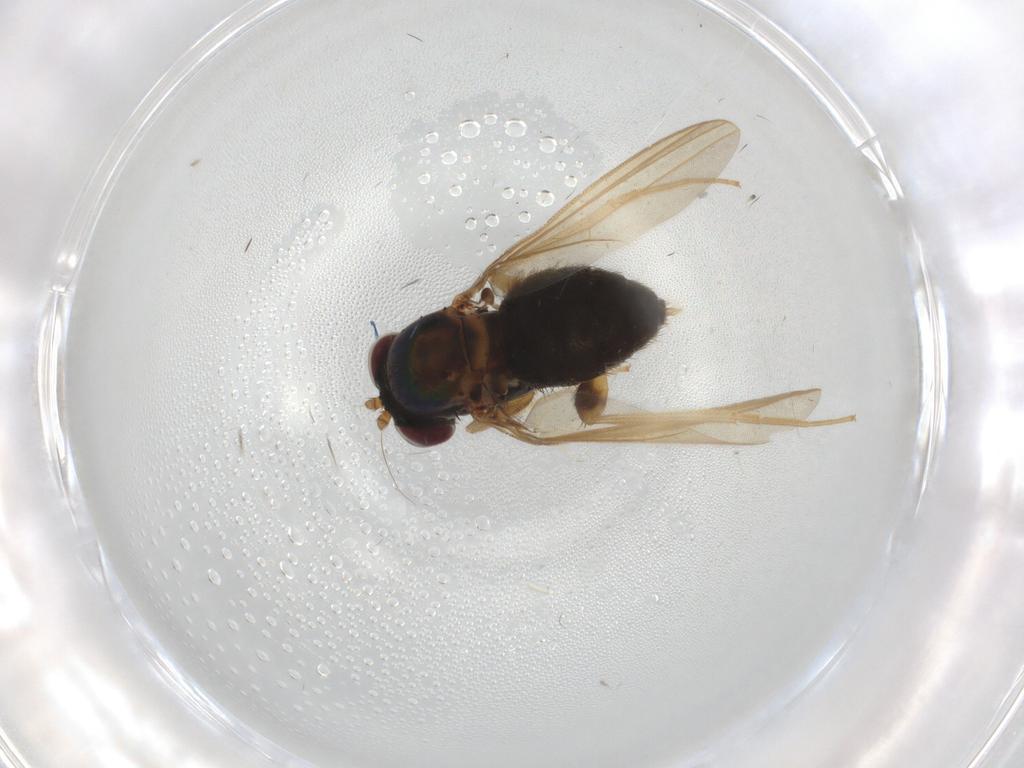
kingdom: Animalia
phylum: Arthropoda
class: Insecta
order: Diptera
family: Dolichopodidae
